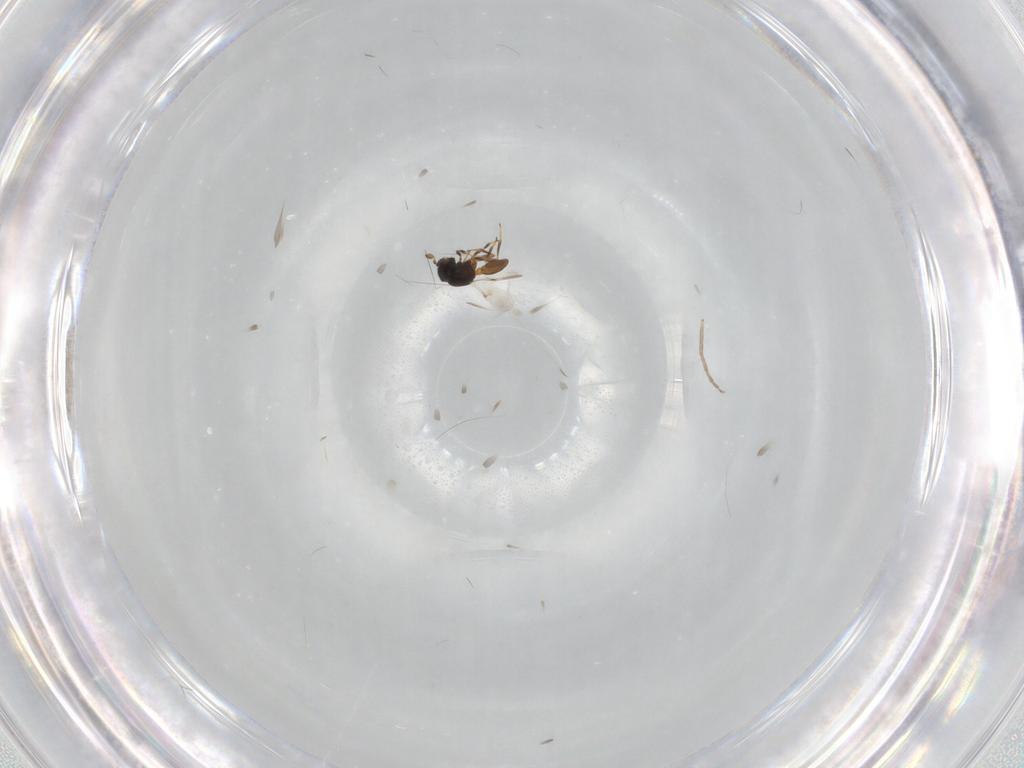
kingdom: Animalia
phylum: Arthropoda
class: Insecta
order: Hymenoptera
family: Scelionidae
